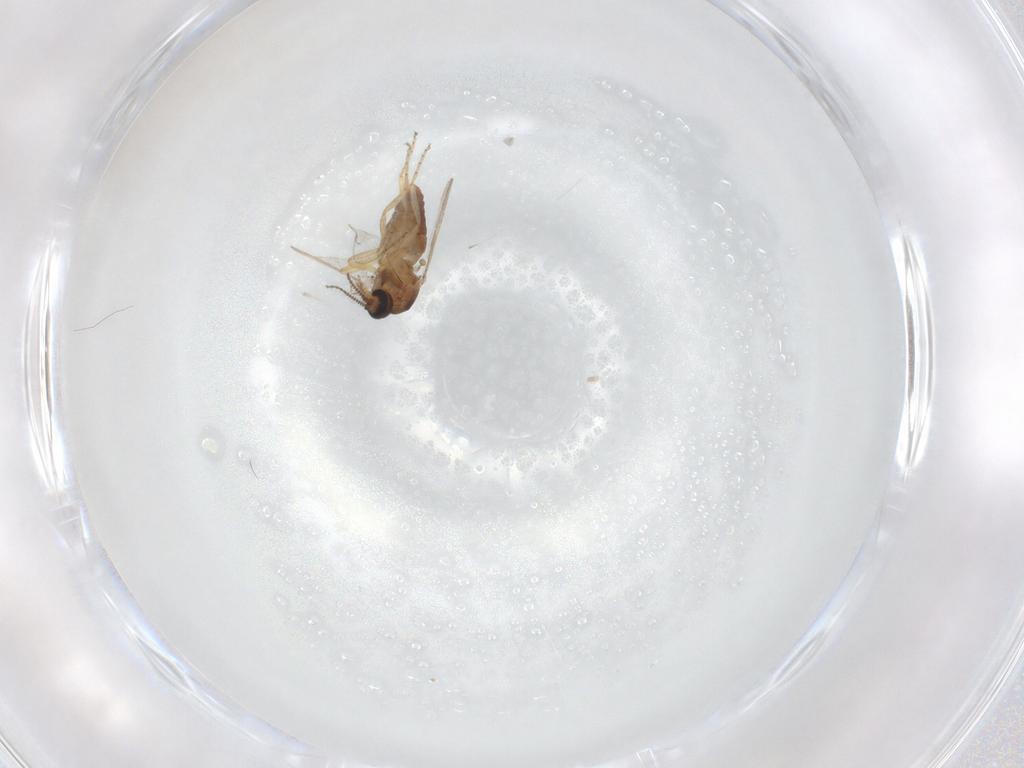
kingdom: Animalia
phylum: Arthropoda
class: Insecta
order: Diptera
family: Ceratopogonidae
